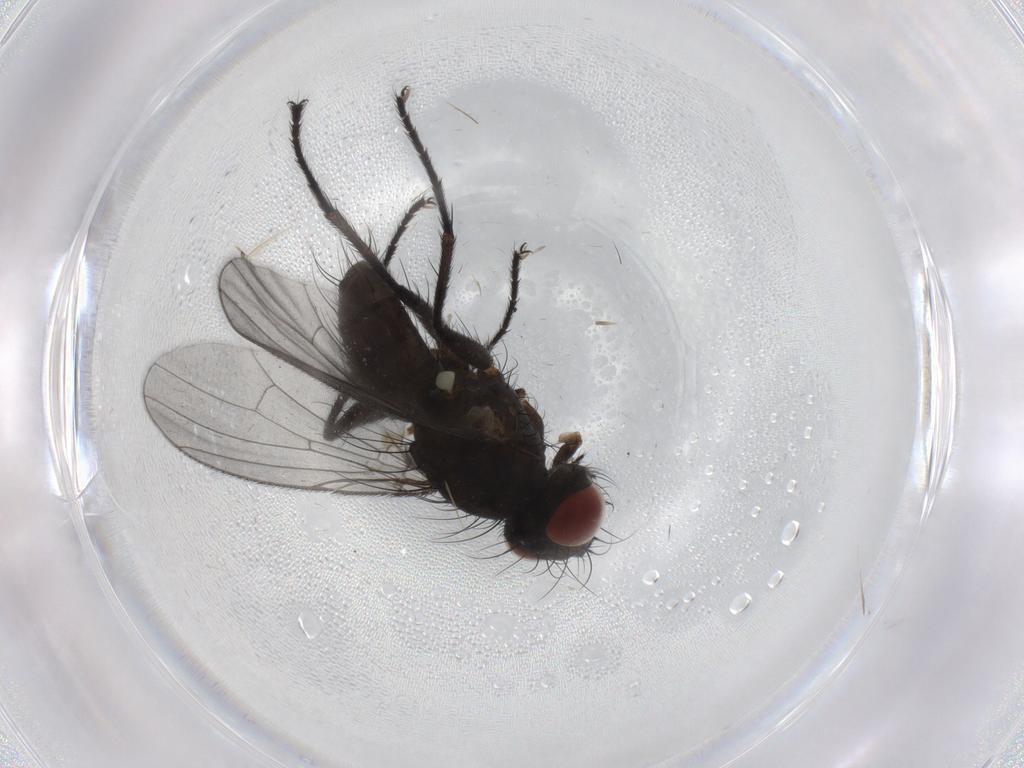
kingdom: Animalia
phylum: Arthropoda
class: Insecta
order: Diptera
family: Muscidae
